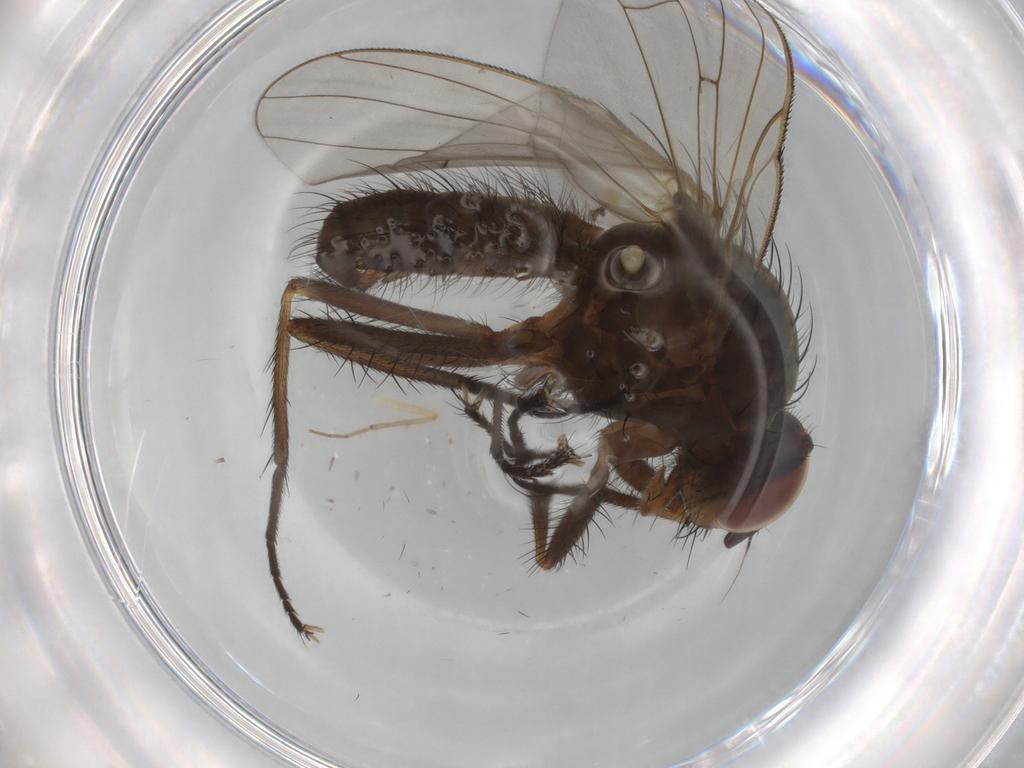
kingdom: Animalia
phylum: Arthropoda
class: Insecta
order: Diptera
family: Anthomyiidae
